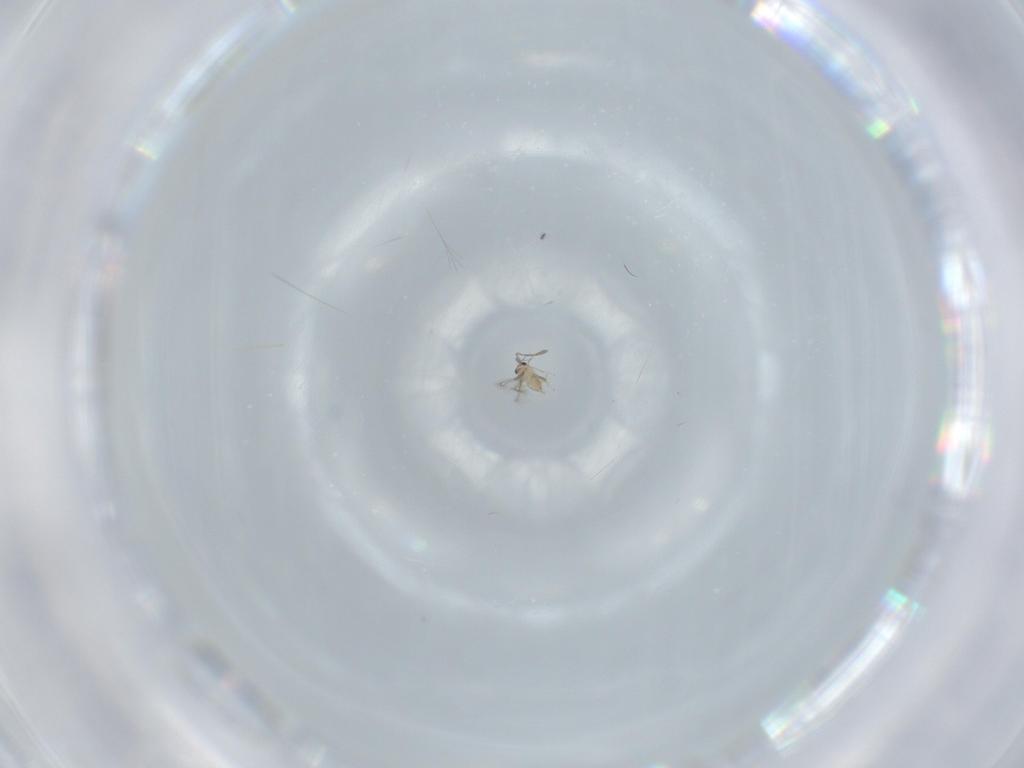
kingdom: Animalia
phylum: Arthropoda
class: Insecta
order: Hymenoptera
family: Mymaridae
